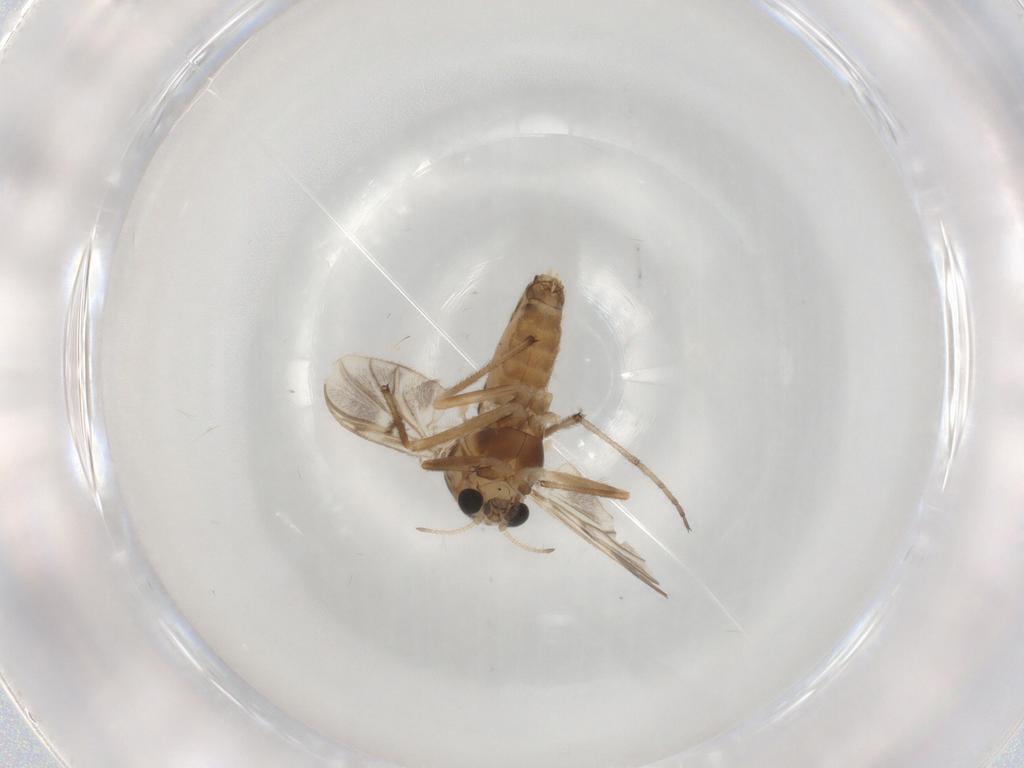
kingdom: Animalia
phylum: Arthropoda
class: Insecta
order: Diptera
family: Chironomidae
